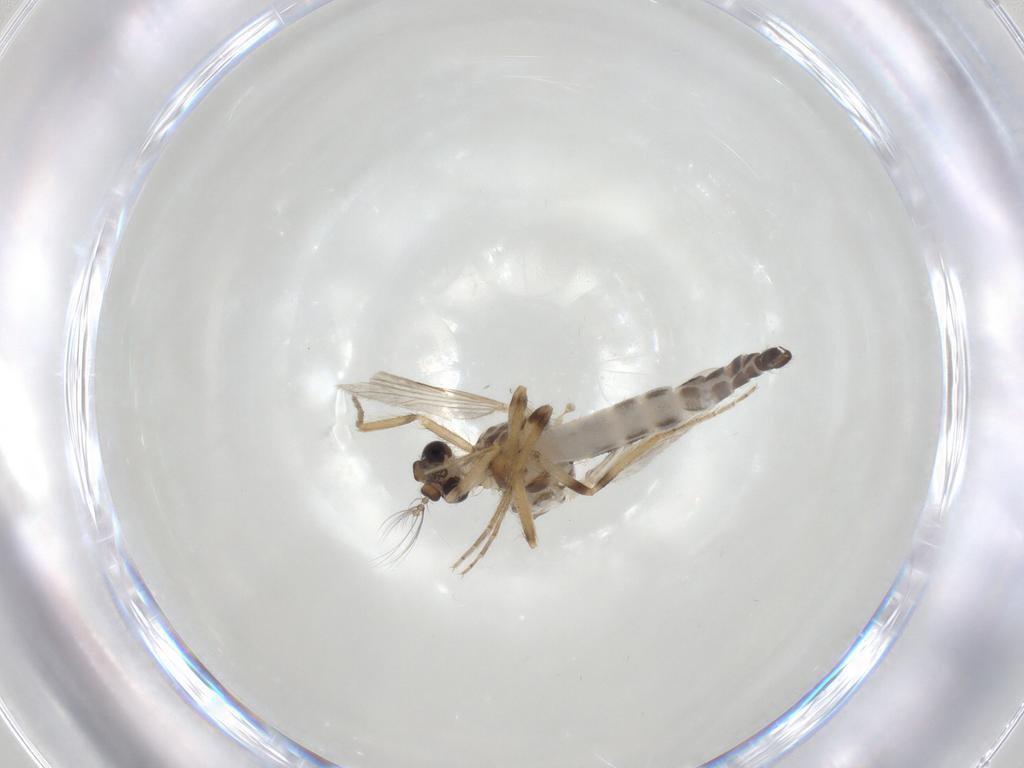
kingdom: Animalia
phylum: Arthropoda
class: Insecta
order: Diptera
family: Ceratopogonidae
